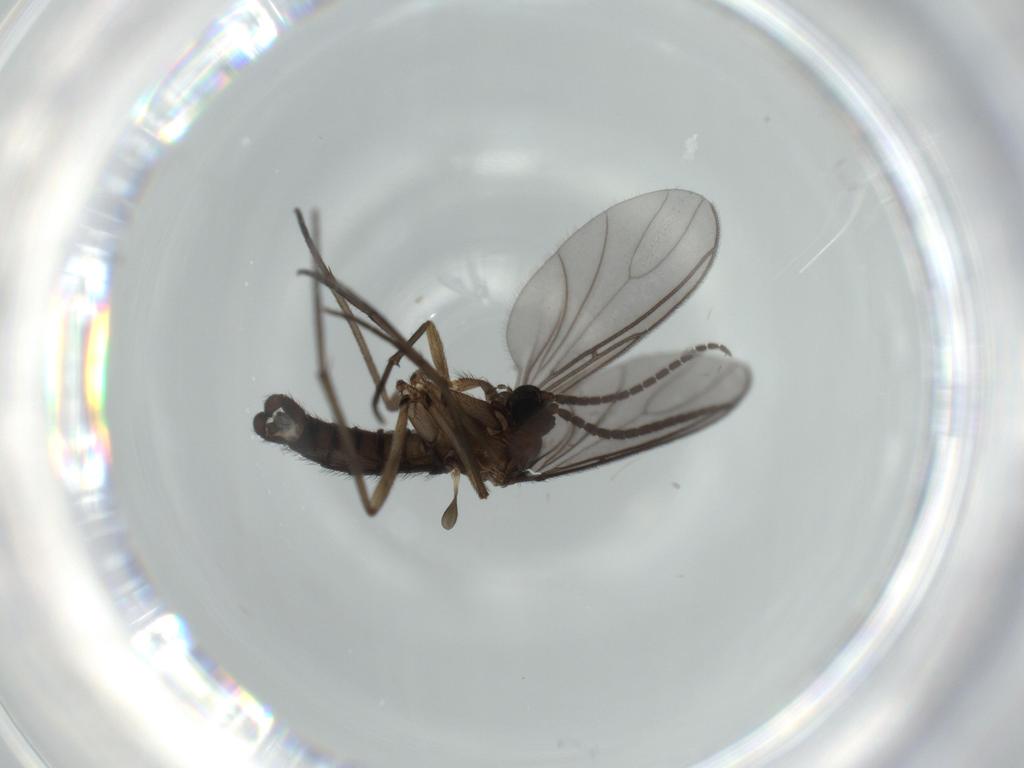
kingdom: Animalia
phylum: Arthropoda
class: Insecta
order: Diptera
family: Sciaridae
